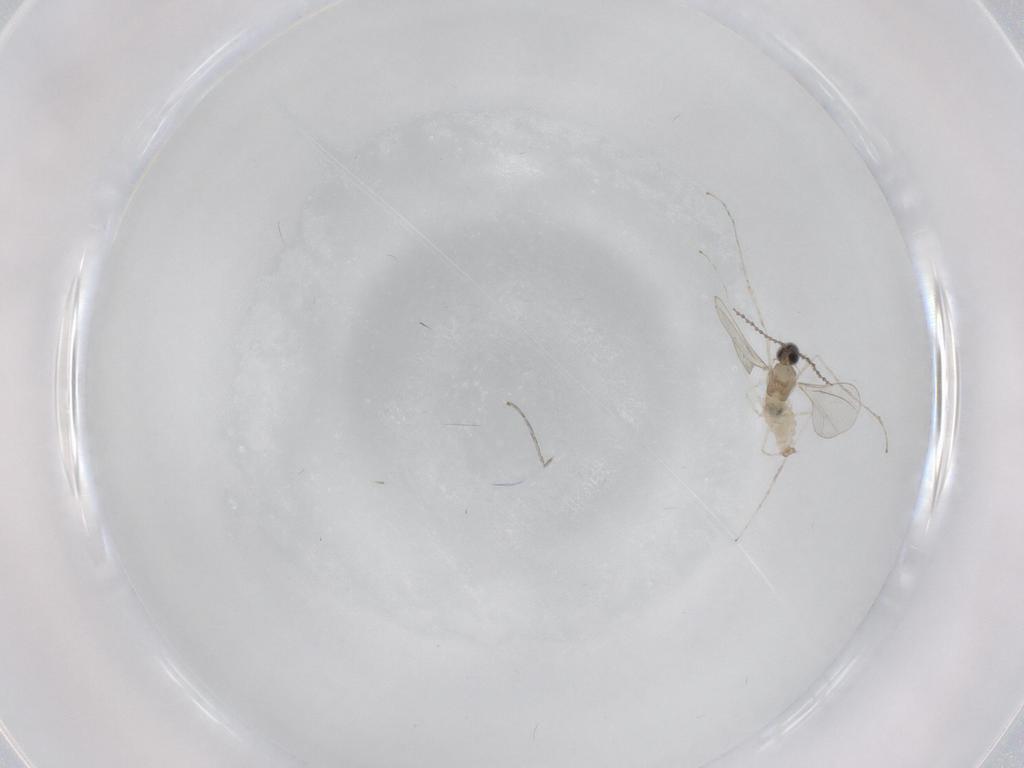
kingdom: Animalia
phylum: Arthropoda
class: Insecta
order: Diptera
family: Cecidomyiidae
